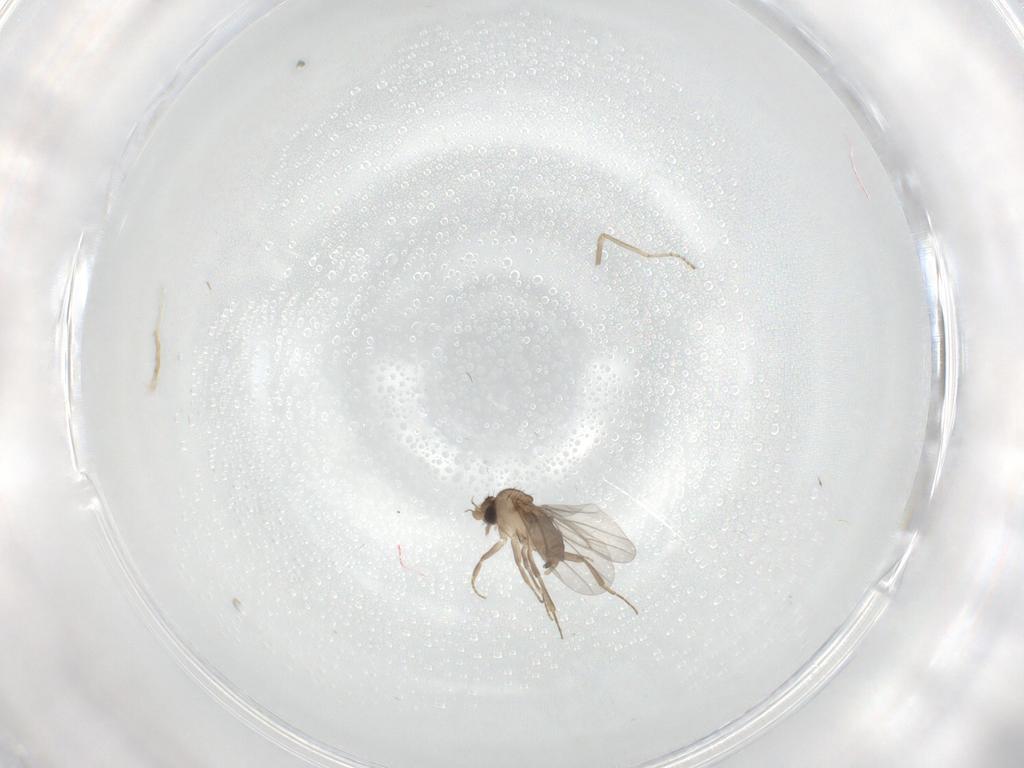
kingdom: Animalia
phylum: Arthropoda
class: Insecta
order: Diptera
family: Ceratopogonidae
